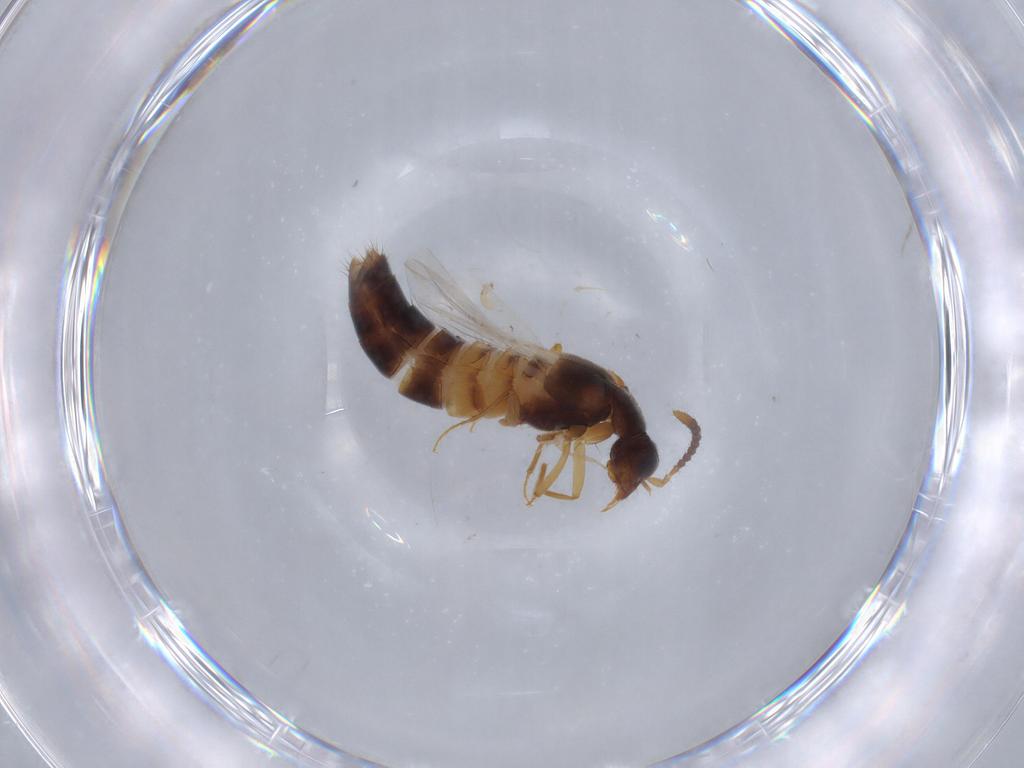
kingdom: Animalia
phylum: Arthropoda
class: Insecta
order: Coleoptera
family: Staphylinidae
